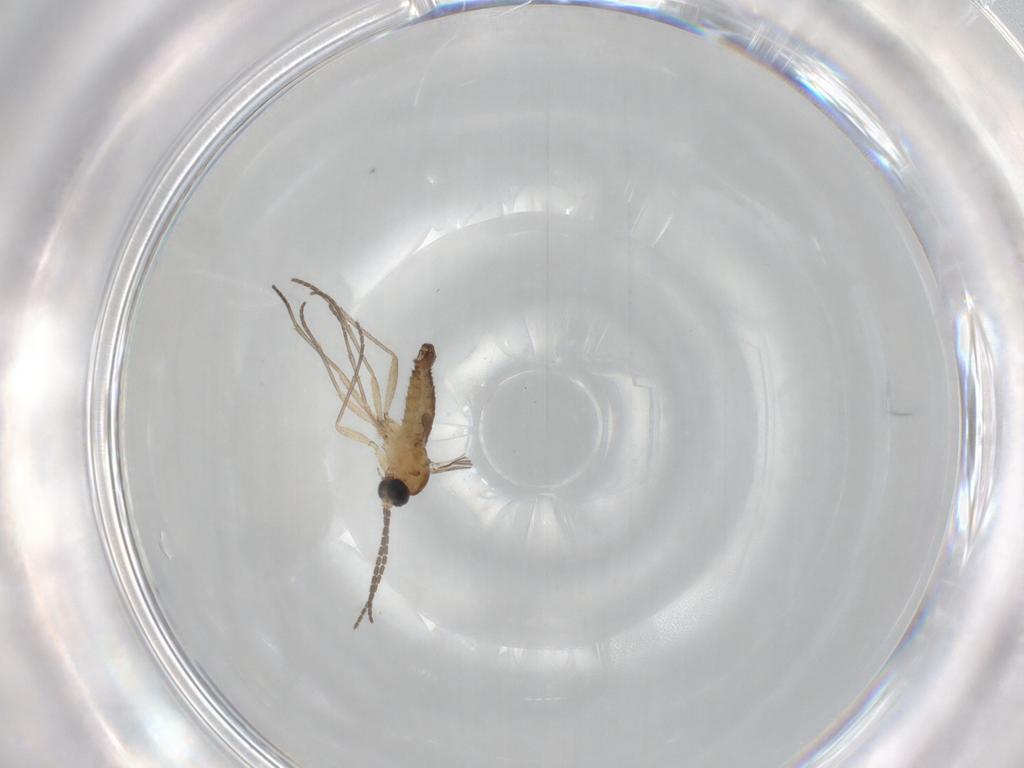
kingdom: Animalia
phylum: Arthropoda
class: Insecta
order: Diptera
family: Sciaridae
